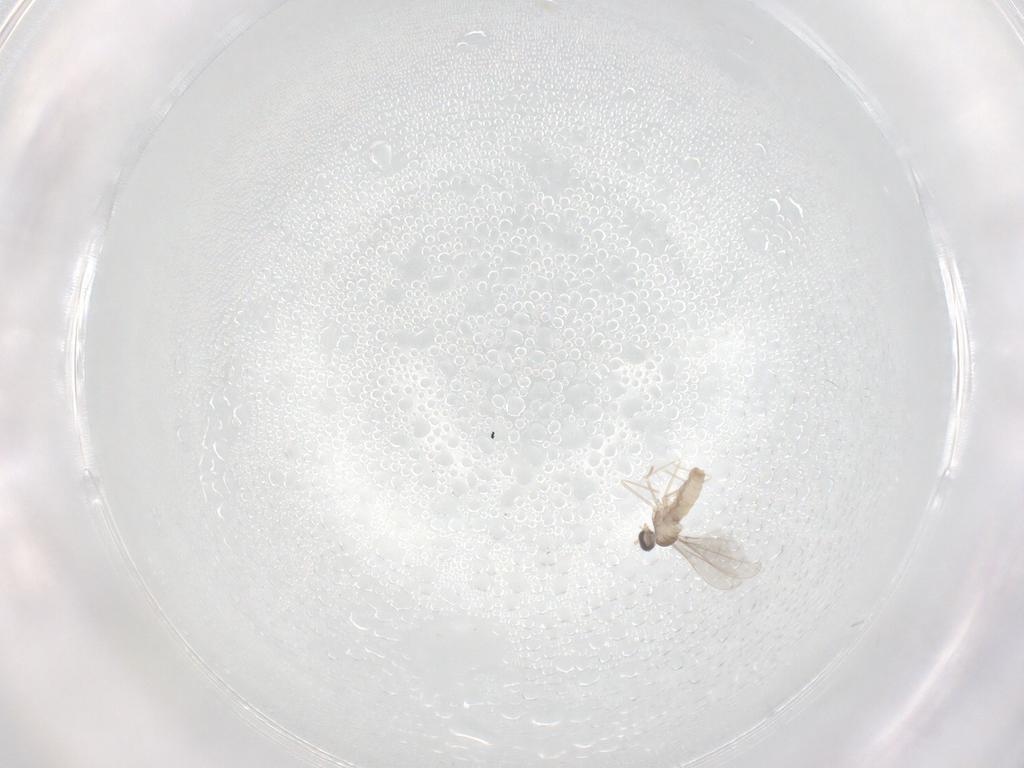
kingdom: Animalia
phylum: Arthropoda
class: Insecta
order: Diptera
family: Cecidomyiidae
